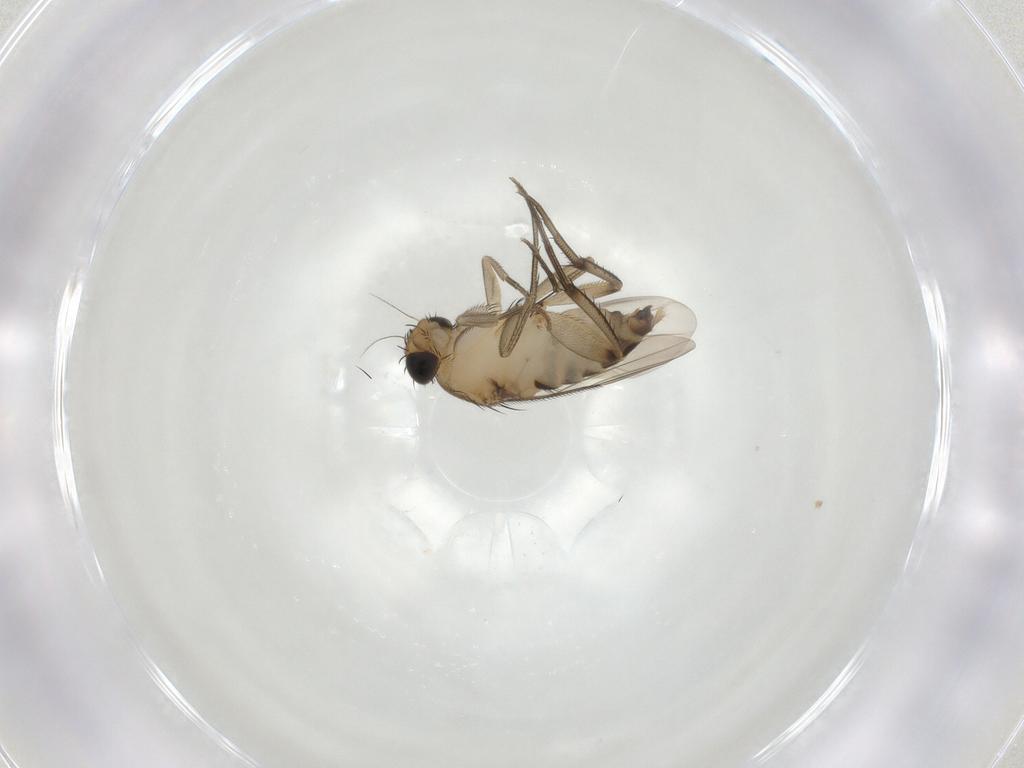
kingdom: Animalia
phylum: Arthropoda
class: Insecta
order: Diptera
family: Phoridae
